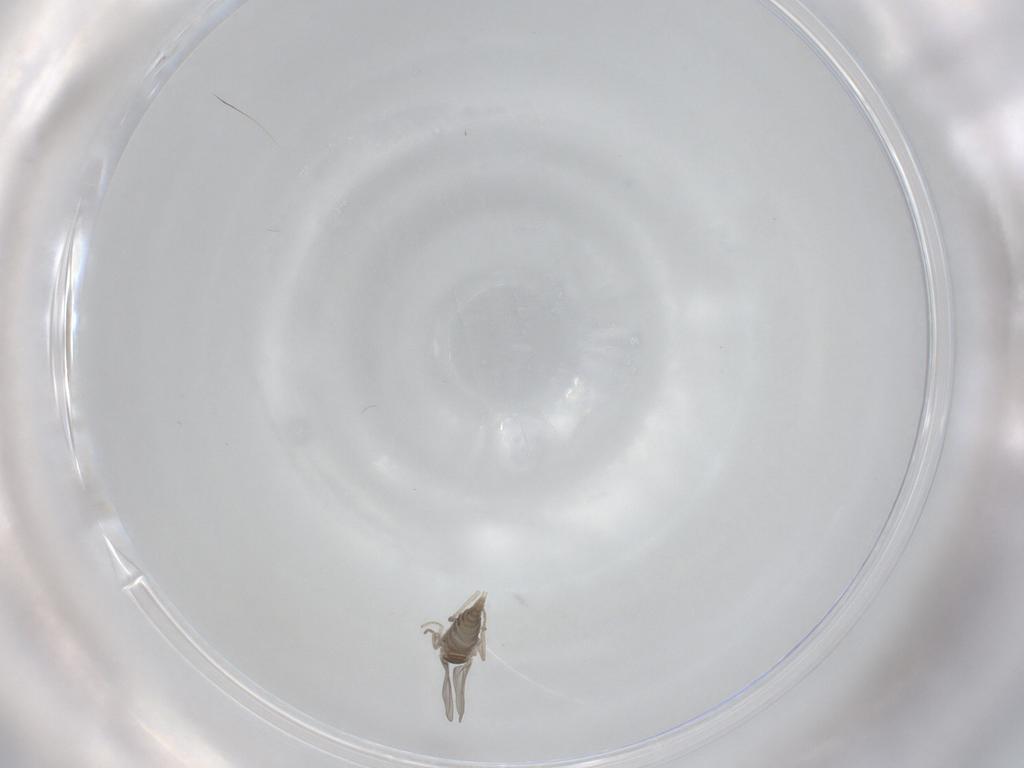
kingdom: Animalia
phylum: Arthropoda
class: Insecta
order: Diptera
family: Cecidomyiidae
